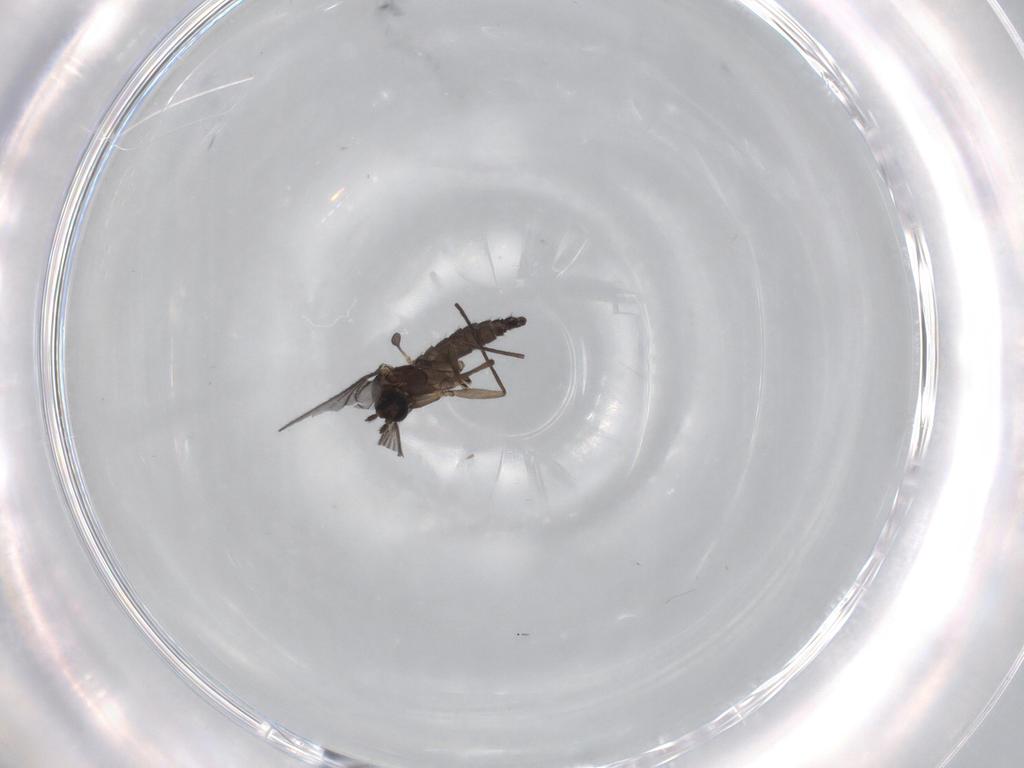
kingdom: Animalia
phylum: Arthropoda
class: Insecta
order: Diptera
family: Sciaridae
